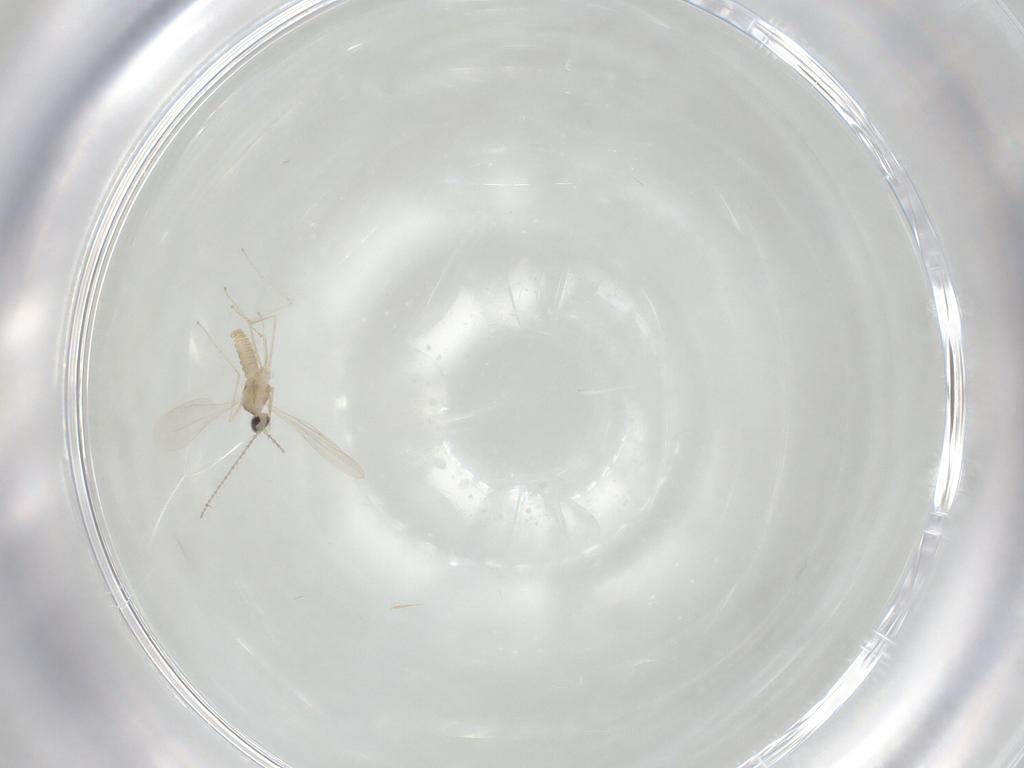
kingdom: Animalia
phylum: Arthropoda
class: Insecta
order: Diptera
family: Cecidomyiidae
